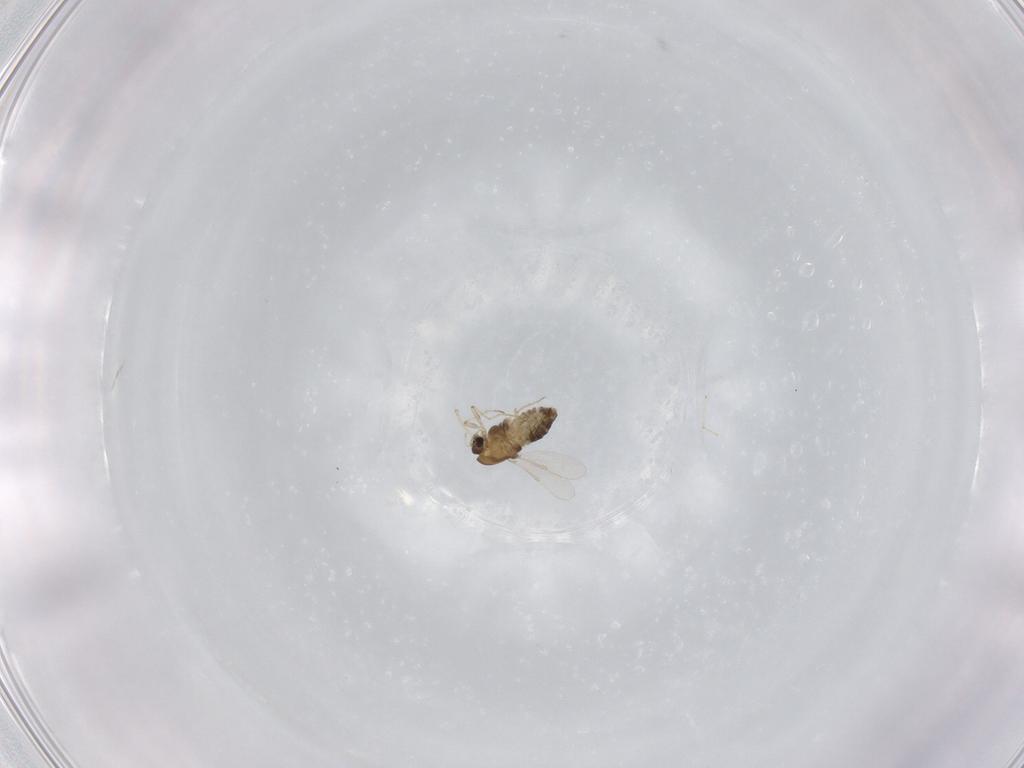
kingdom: Animalia
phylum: Arthropoda
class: Insecta
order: Diptera
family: Chironomidae
